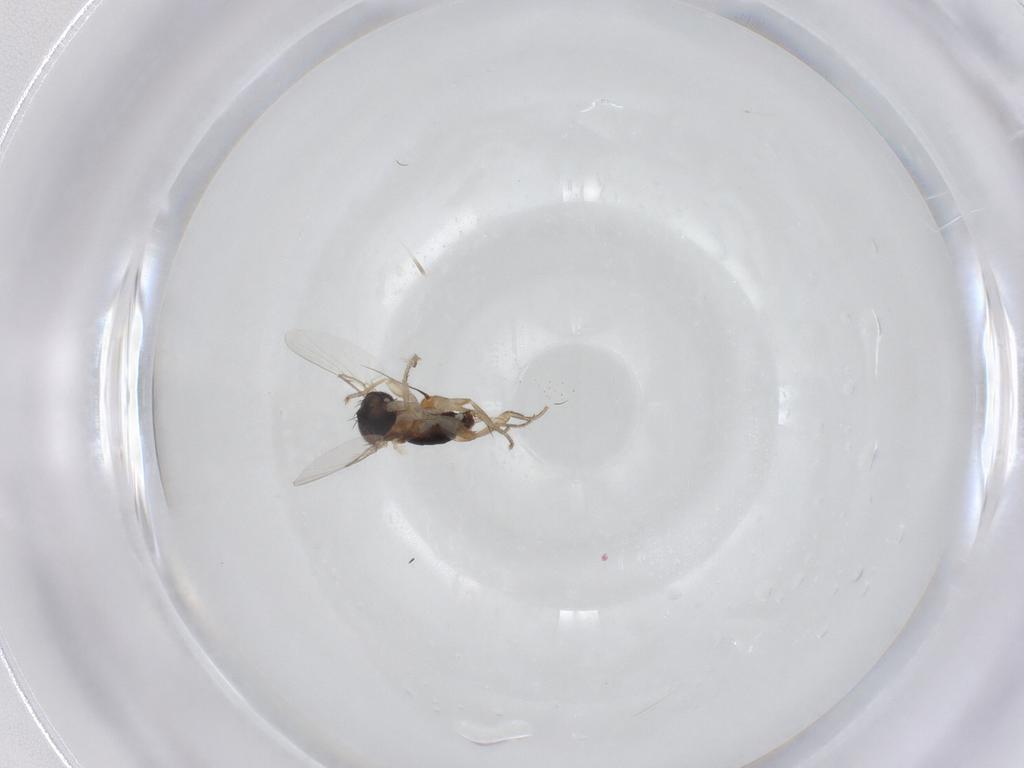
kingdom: Animalia
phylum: Arthropoda
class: Insecta
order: Diptera
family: Heleomyzidae
